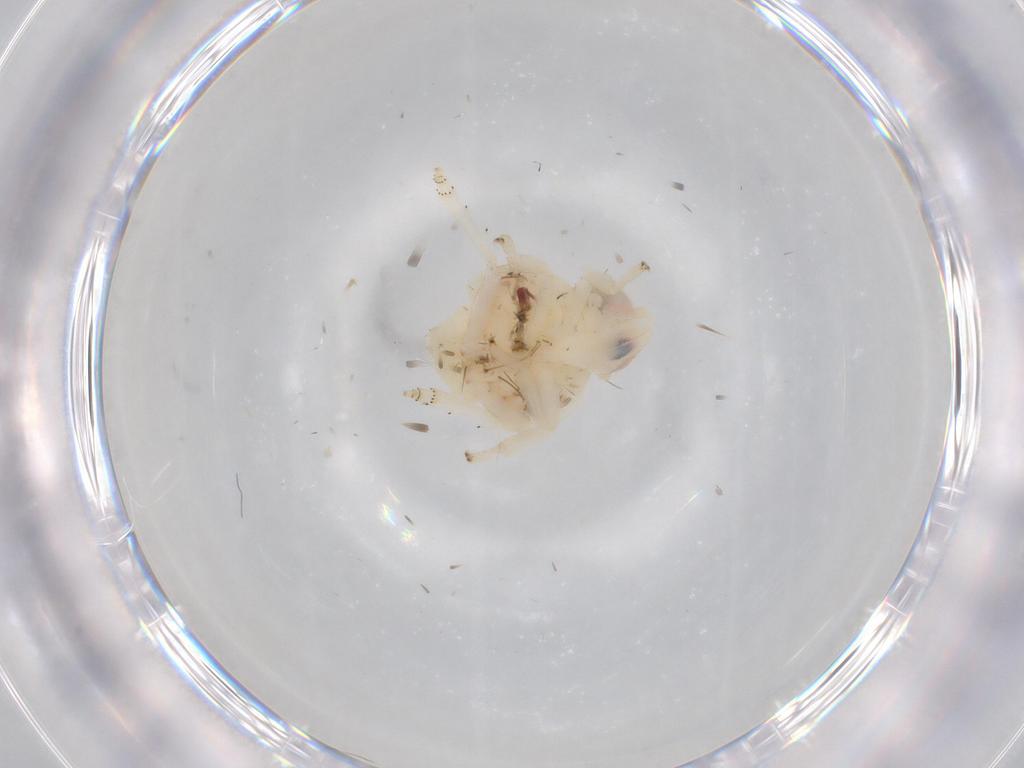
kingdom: Animalia
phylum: Arthropoda
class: Insecta
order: Hemiptera
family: Nogodinidae
